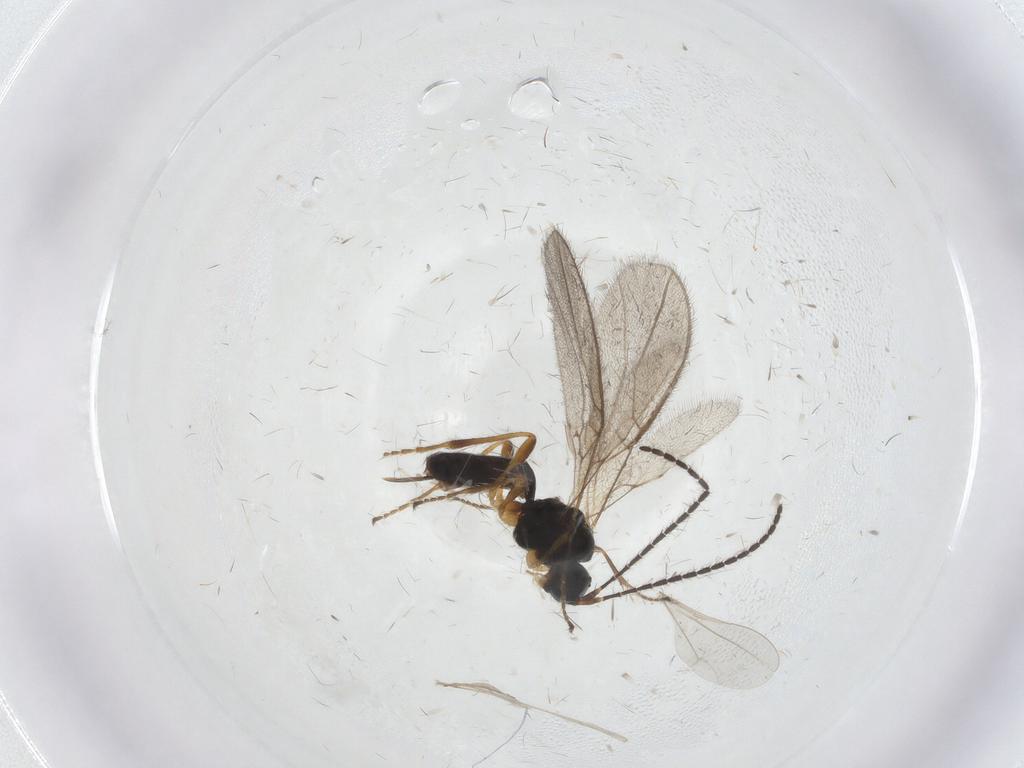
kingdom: Animalia
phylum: Arthropoda
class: Insecta
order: Hymenoptera
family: Braconidae
